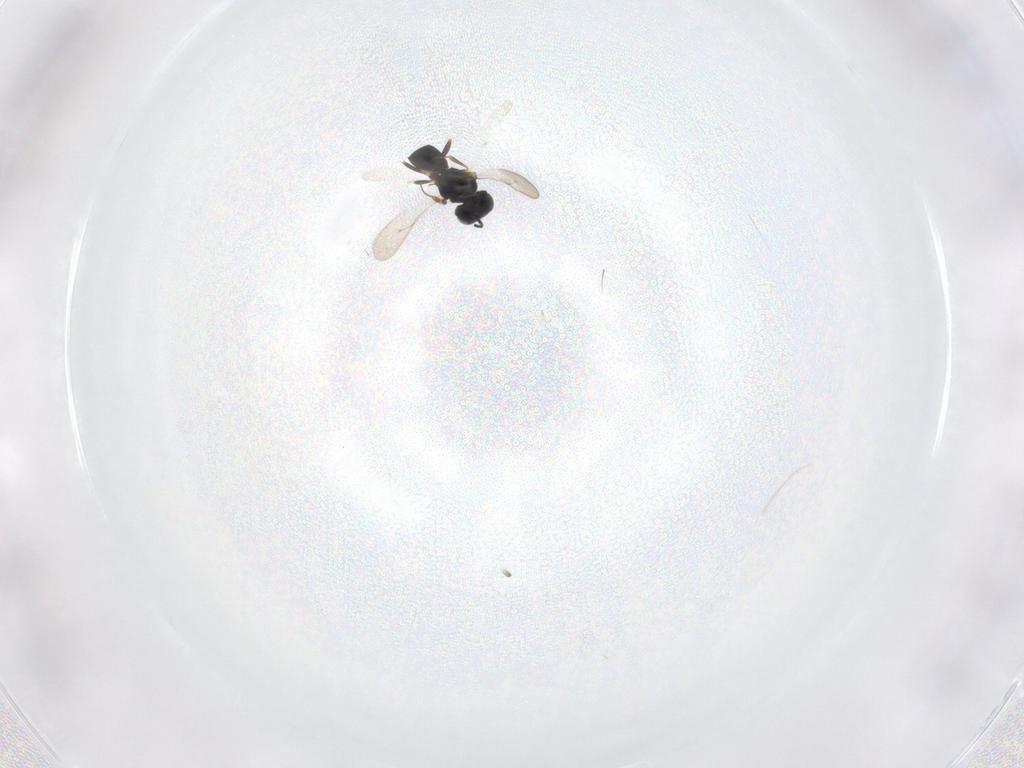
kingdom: Animalia
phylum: Arthropoda
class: Insecta
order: Hymenoptera
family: Scelionidae
